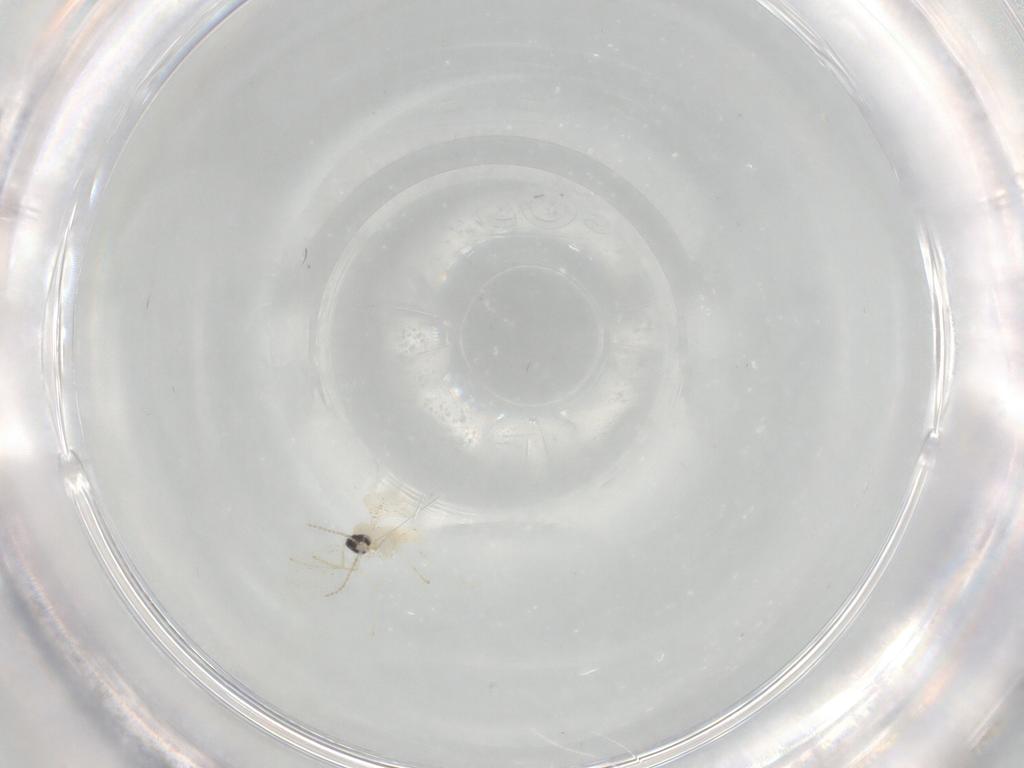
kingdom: Animalia
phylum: Arthropoda
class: Insecta
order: Diptera
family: Cecidomyiidae
